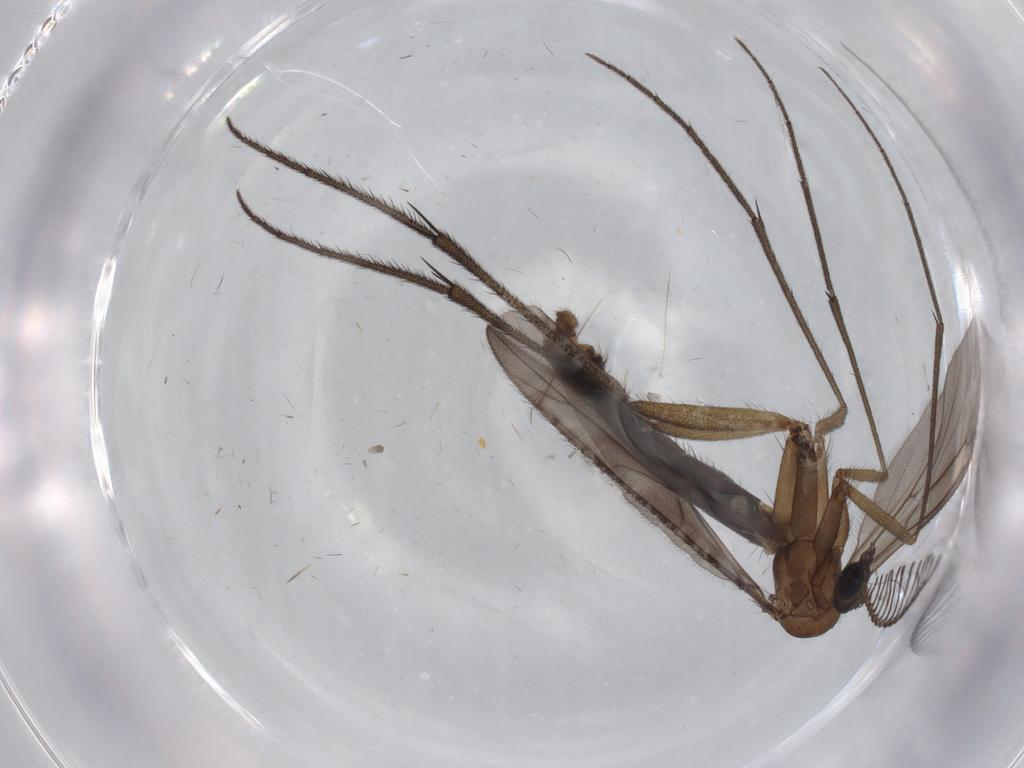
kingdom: Animalia
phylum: Arthropoda
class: Insecta
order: Diptera
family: Ditomyiidae
